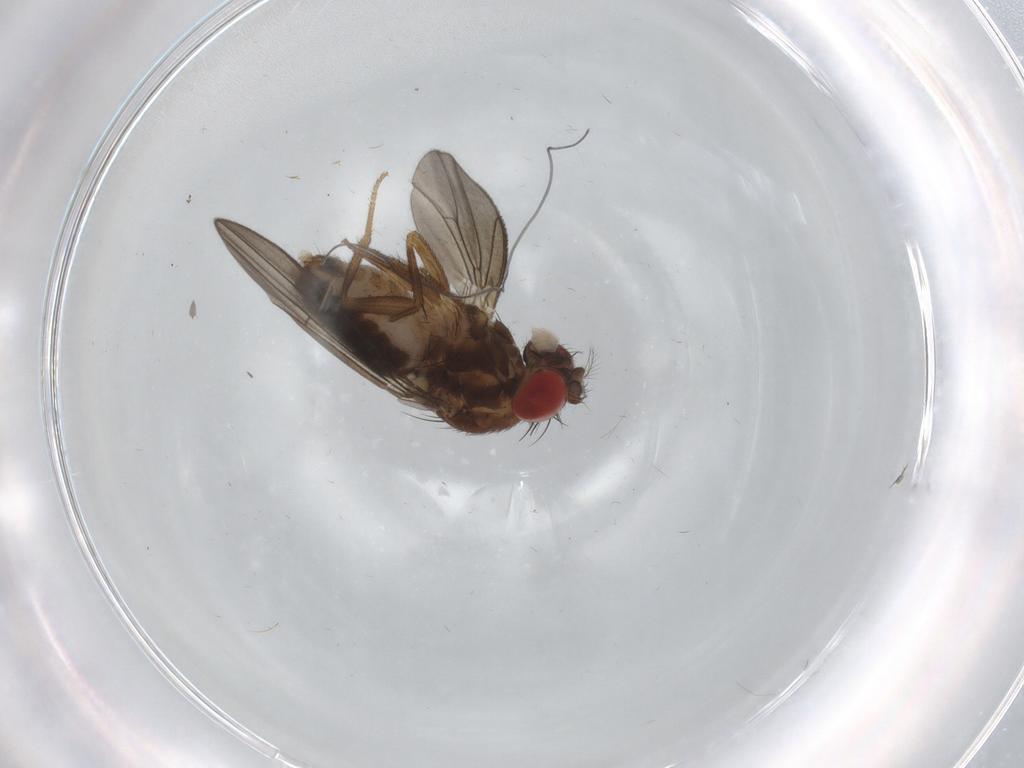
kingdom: Animalia
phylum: Arthropoda
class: Insecta
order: Diptera
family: Drosophilidae
